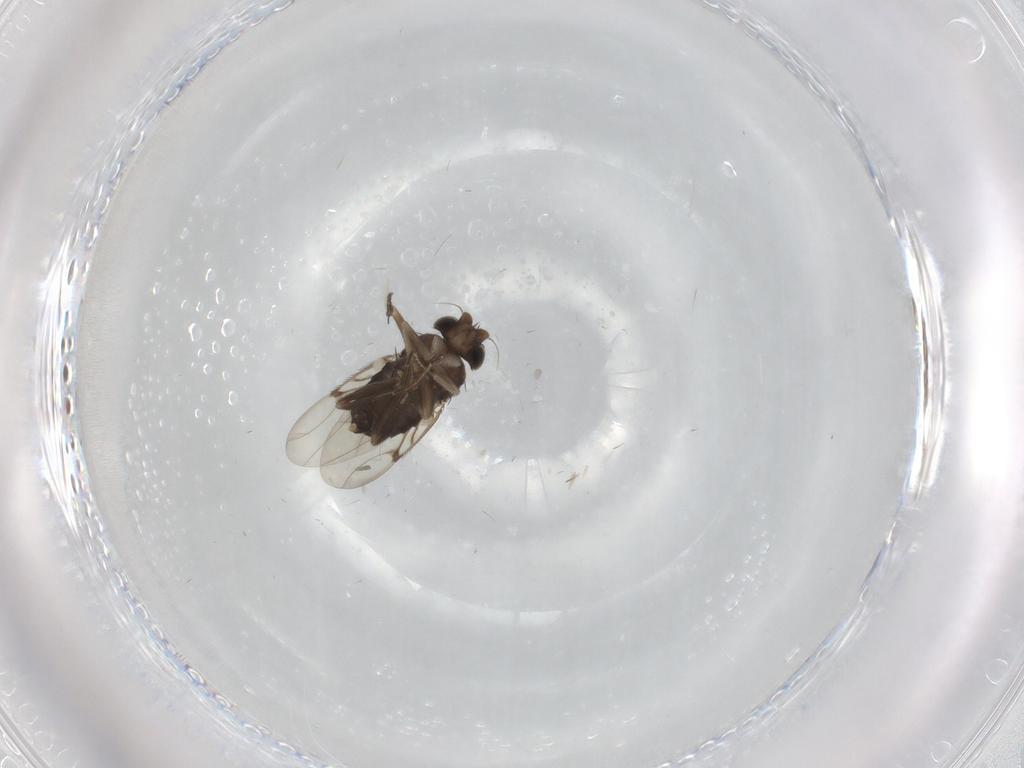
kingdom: Animalia
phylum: Arthropoda
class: Insecta
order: Diptera
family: Phoridae
